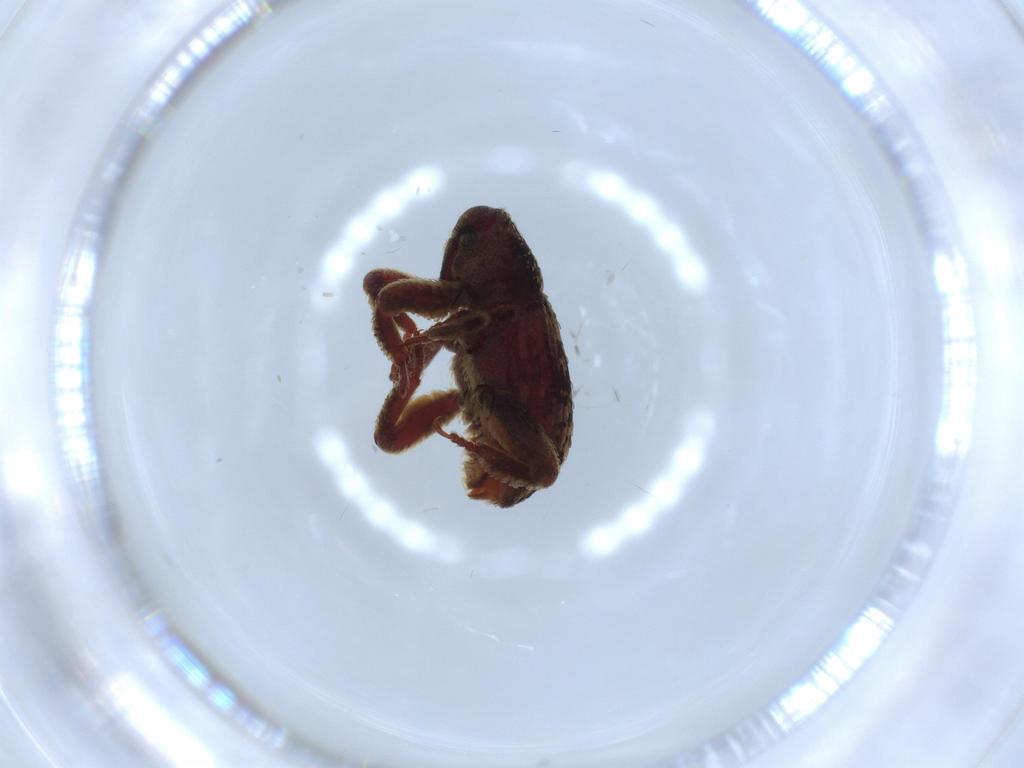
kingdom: Animalia
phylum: Arthropoda
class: Insecta
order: Coleoptera
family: Curculionidae
